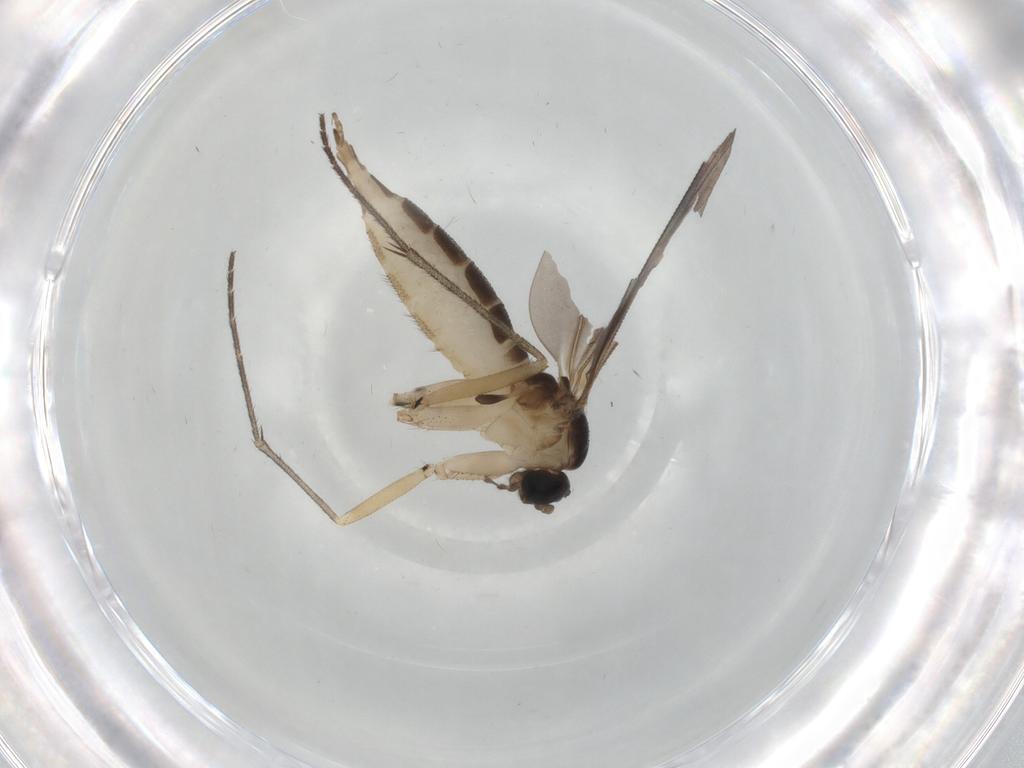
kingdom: Animalia
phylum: Arthropoda
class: Insecta
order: Diptera
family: Sciaridae
